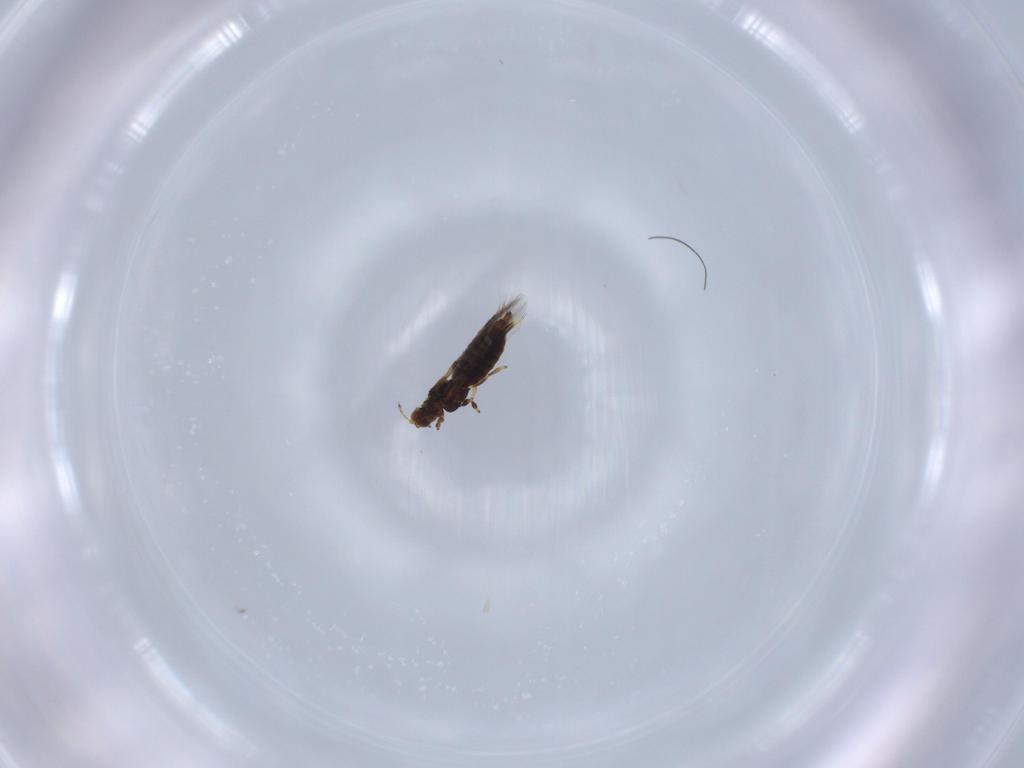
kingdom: Animalia
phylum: Arthropoda
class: Insecta
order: Thysanoptera
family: Thripidae
